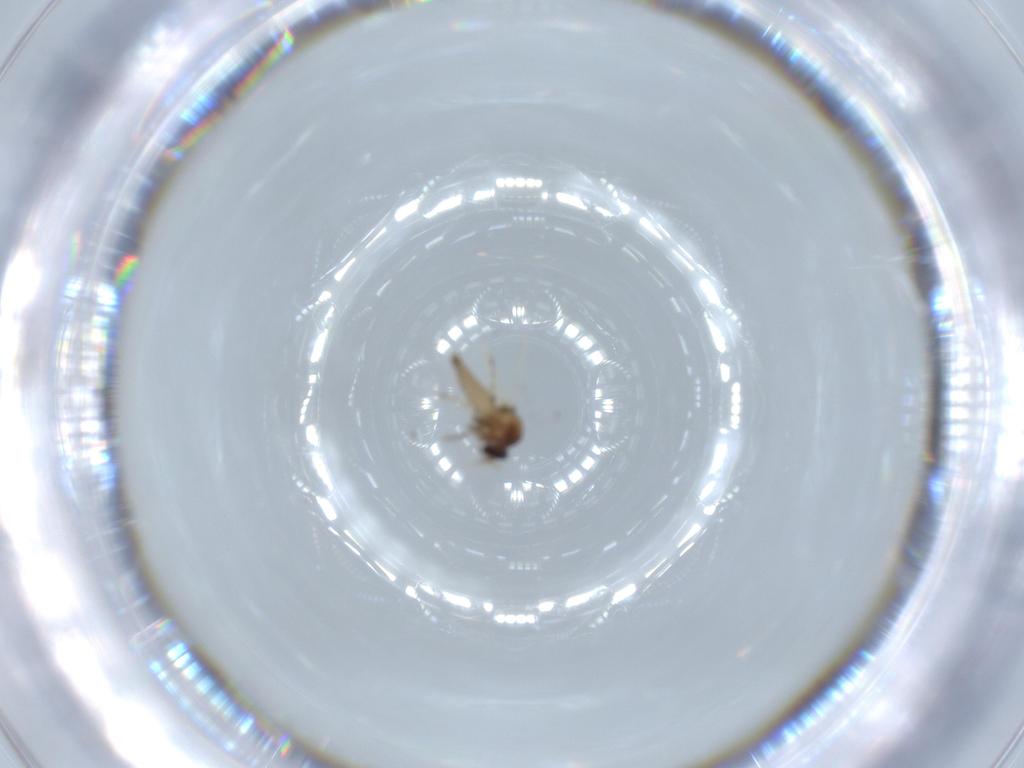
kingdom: Animalia
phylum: Arthropoda
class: Insecta
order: Diptera
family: Ceratopogonidae
